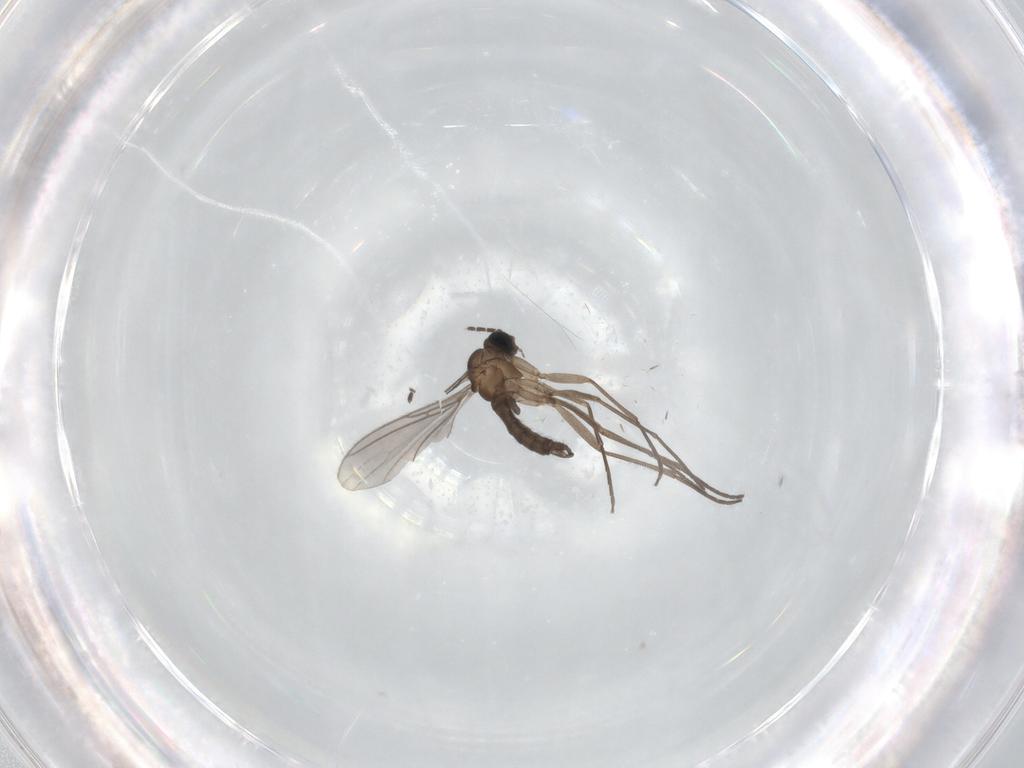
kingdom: Animalia
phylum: Arthropoda
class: Insecta
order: Diptera
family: Sciaridae
